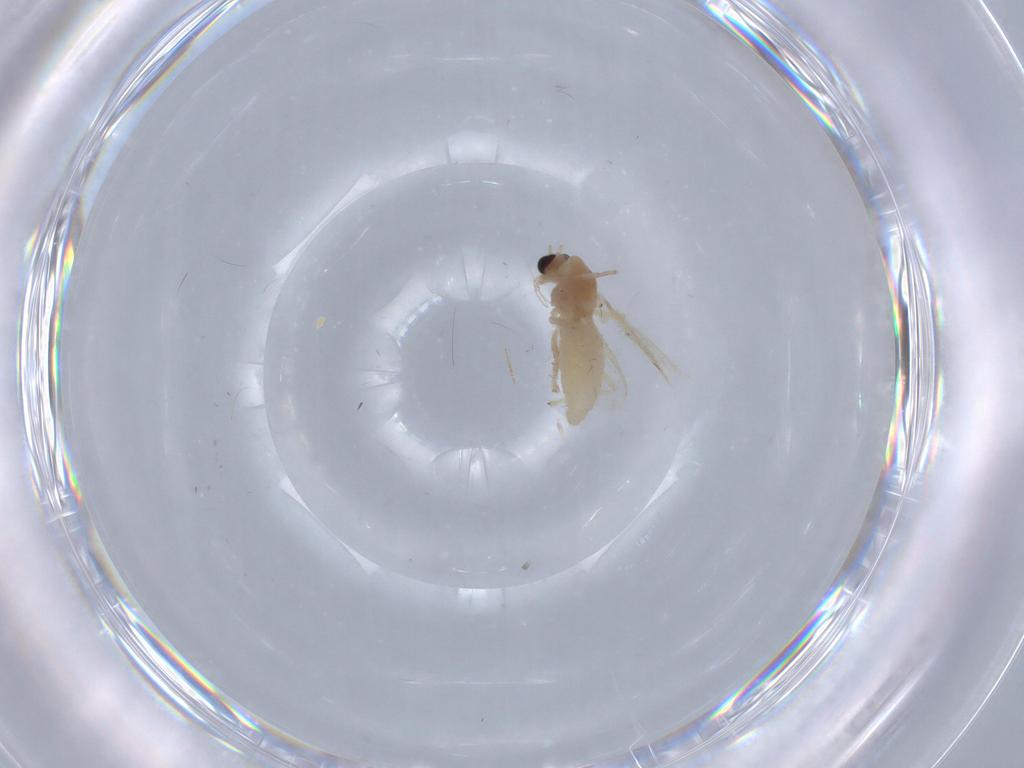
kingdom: Animalia
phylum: Arthropoda
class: Insecta
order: Diptera
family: Chironomidae
